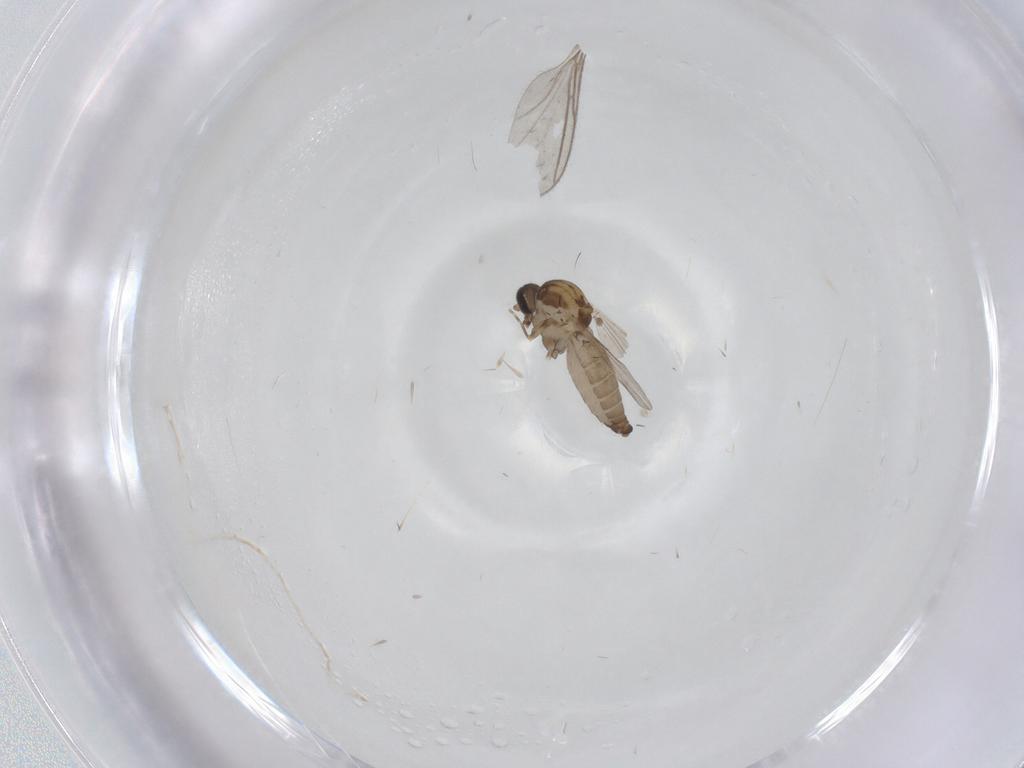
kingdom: Animalia
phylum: Arthropoda
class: Insecta
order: Diptera
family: Ceratopogonidae
